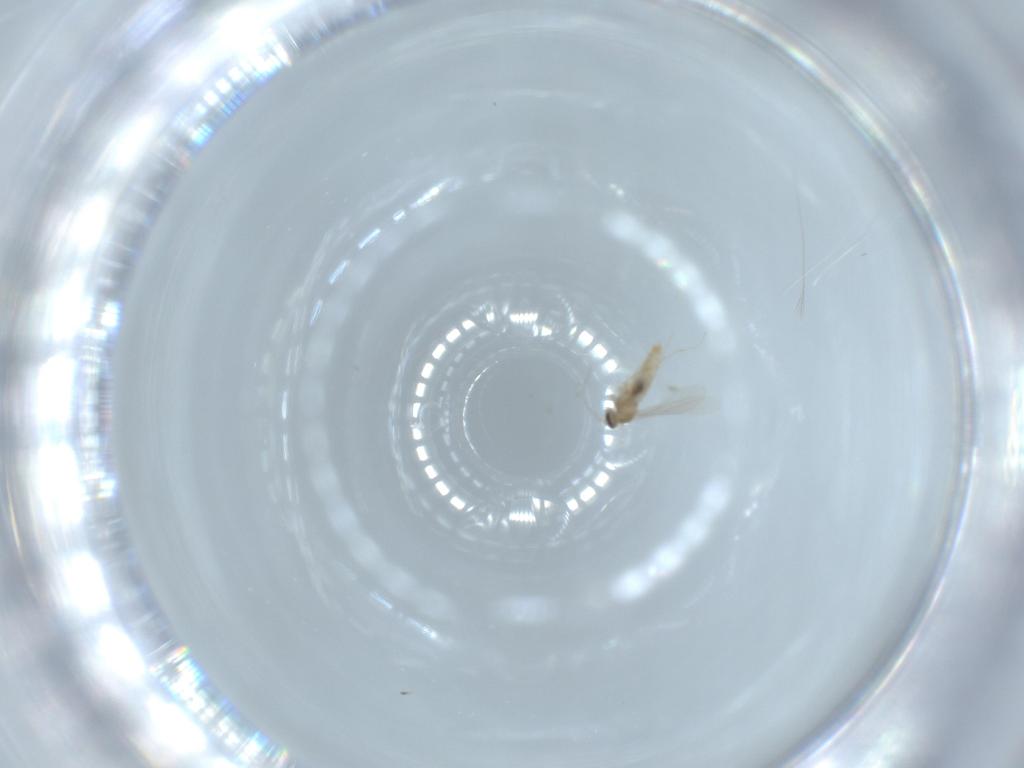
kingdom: Animalia
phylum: Arthropoda
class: Insecta
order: Diptera
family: Cecidomyiidae
